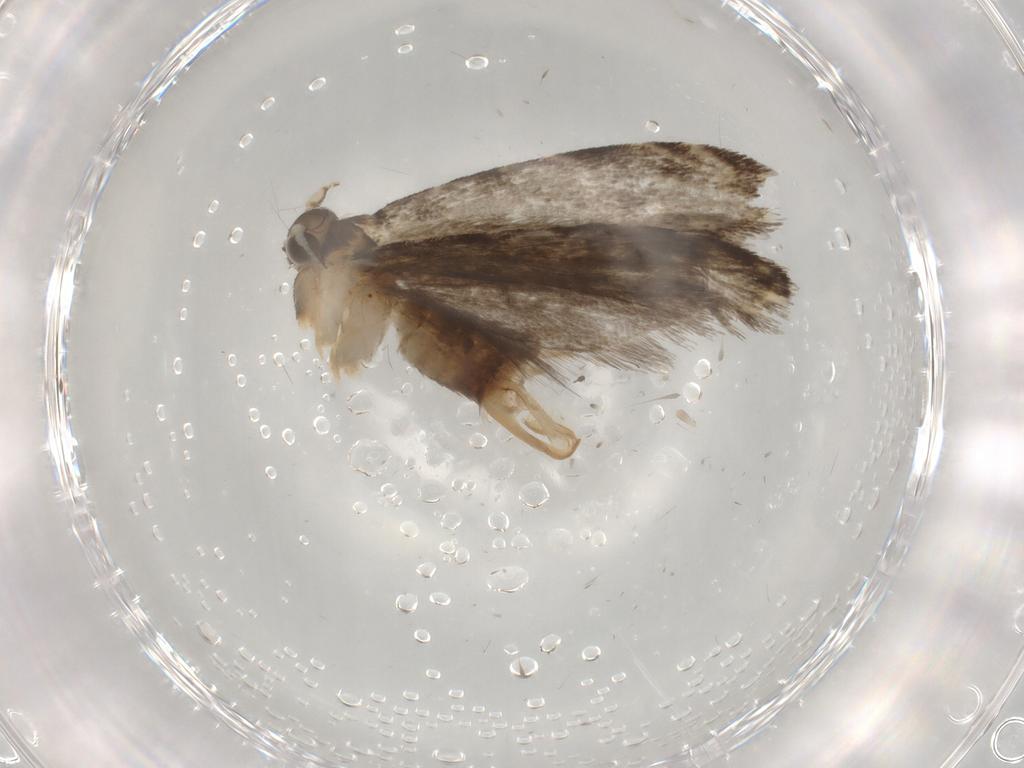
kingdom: Animalia
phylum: Arthropoda
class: Insecta
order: Lepidoptera
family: Tineidae
